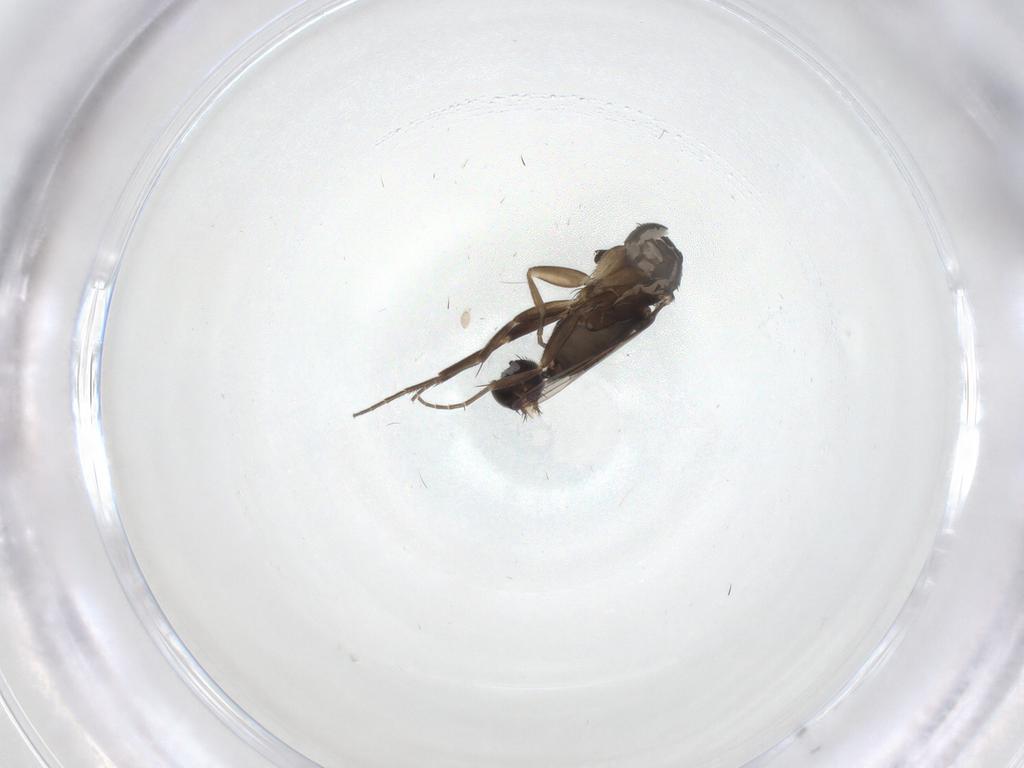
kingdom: Animalia
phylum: Arthropoda
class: Insecta
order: Diptera
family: Phoridae
